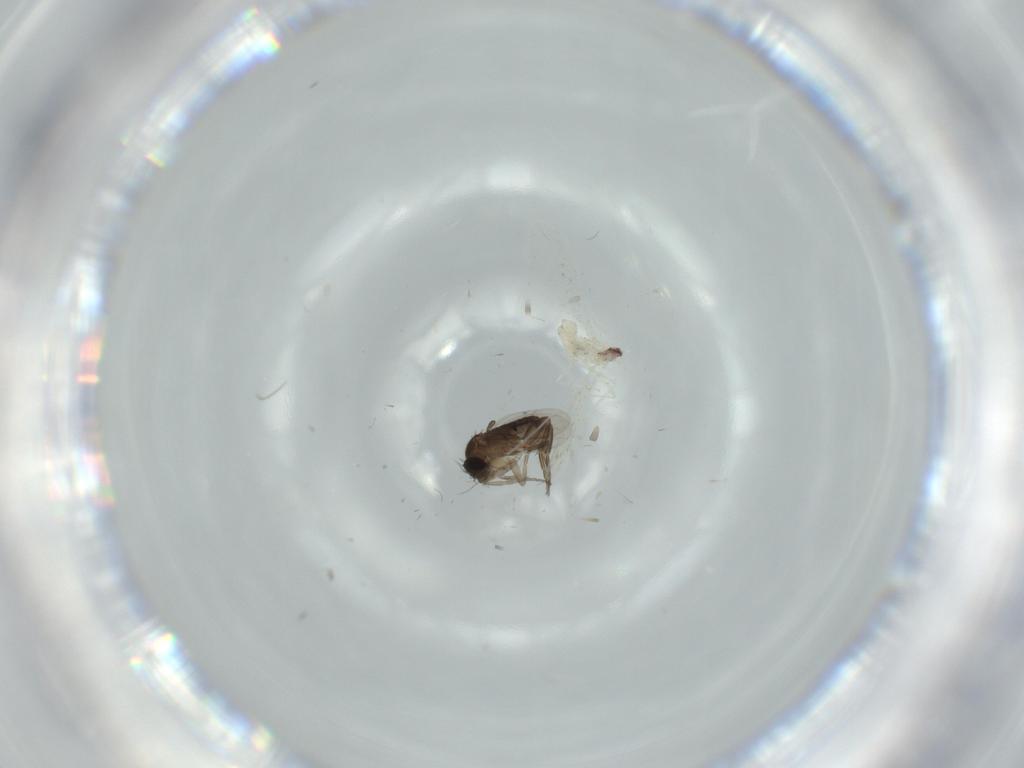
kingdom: Animalia
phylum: Arthropoda
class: Insecta
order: Diptera
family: Phoridae
